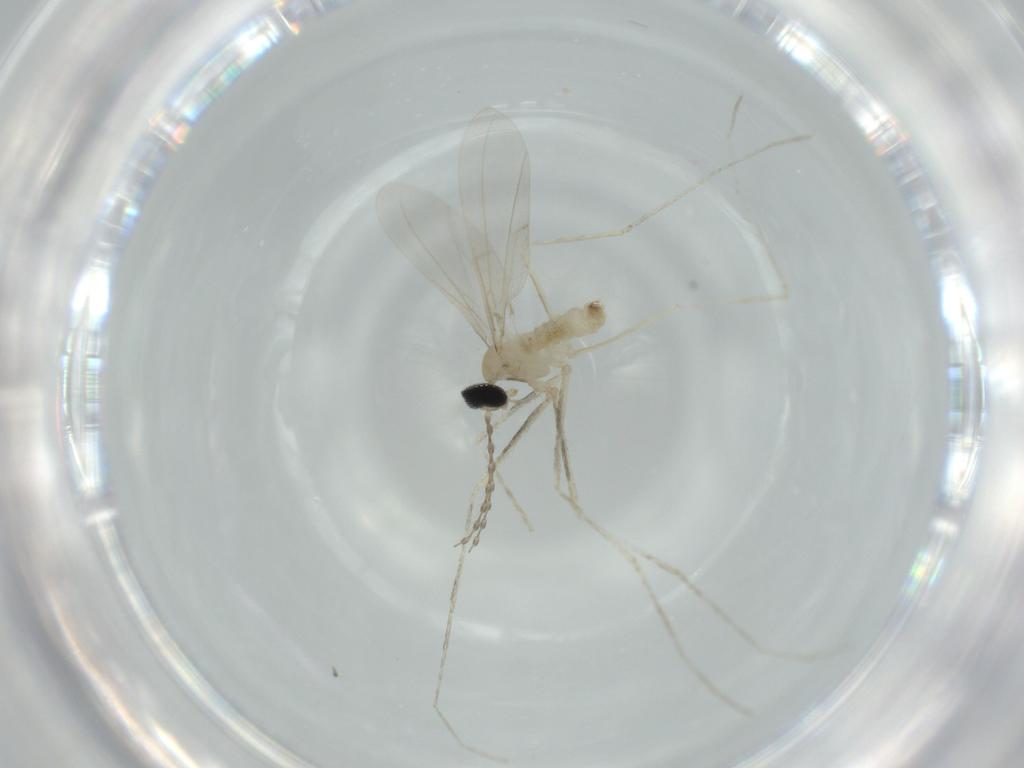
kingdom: Animalia
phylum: Arthropoda
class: Insecta
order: Diptera
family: Cecidomyiidae
